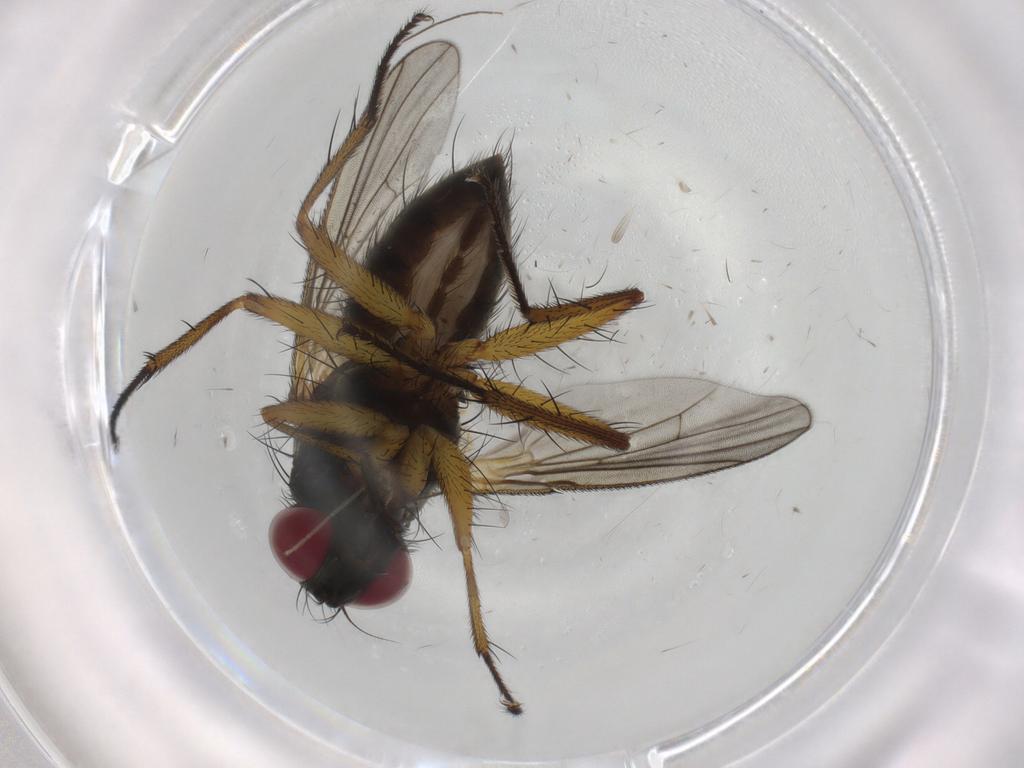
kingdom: Animalia
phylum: Arthropoda
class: Insecta
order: Diptera
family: Muscidae
